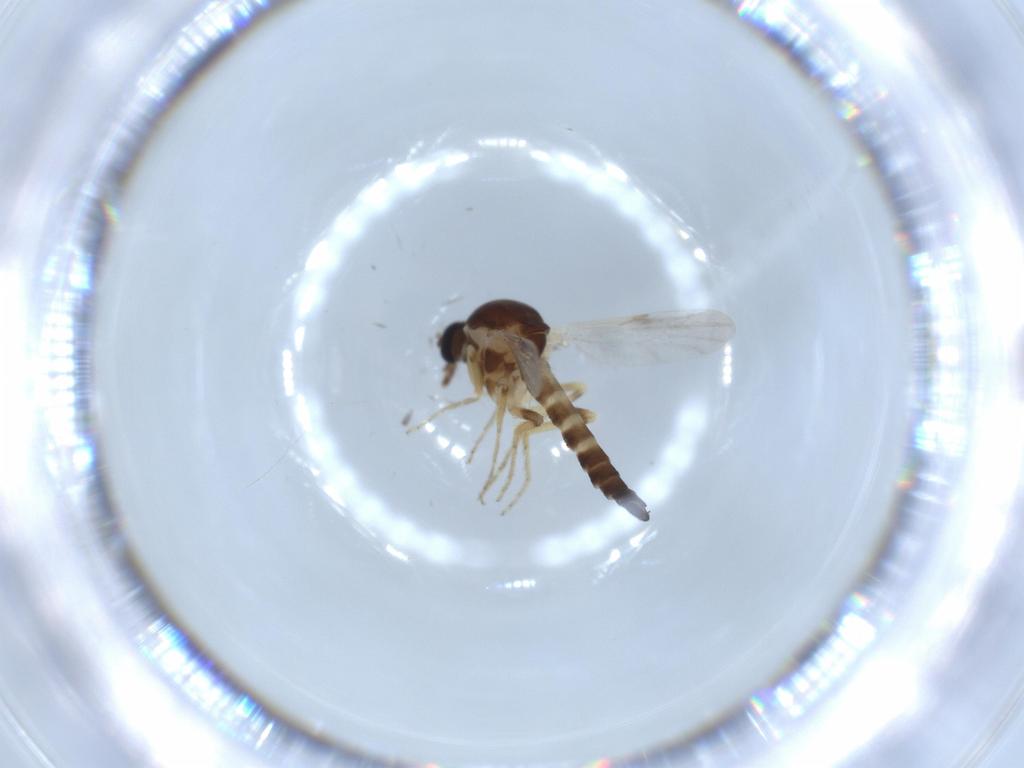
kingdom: Animalia
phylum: Arthropoda
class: Insecta
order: Diptera
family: Ceratopogonidae
